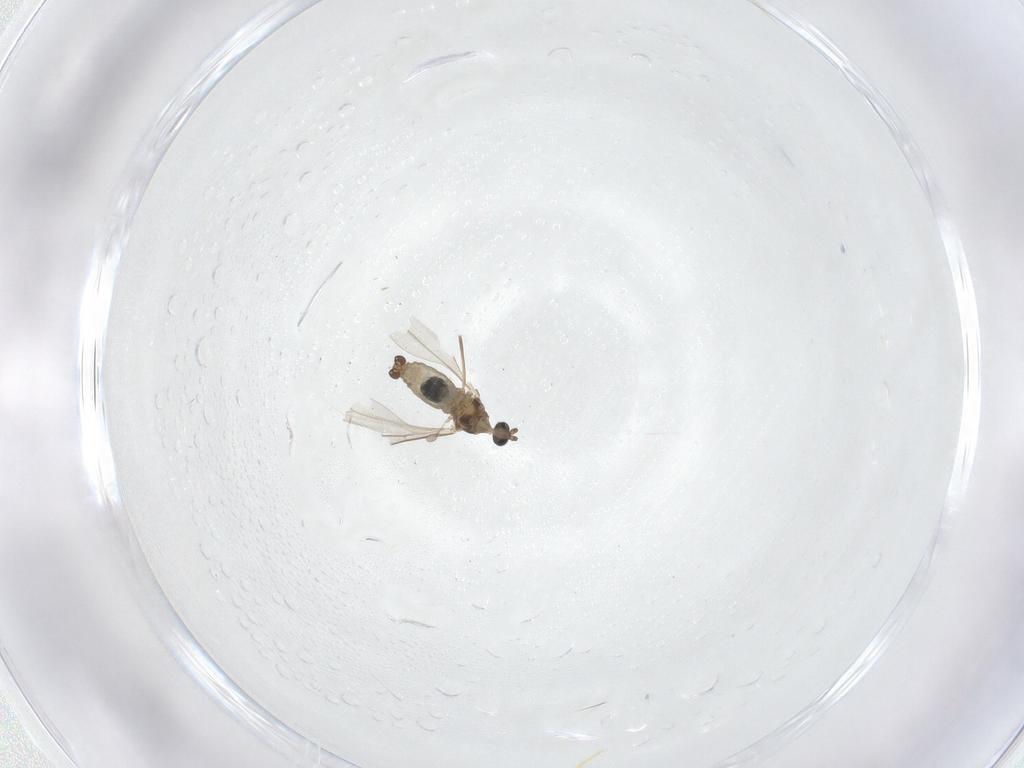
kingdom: Animalia
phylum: Arthropoda
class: Insecta
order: Diptera
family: Cecidomyiidae
